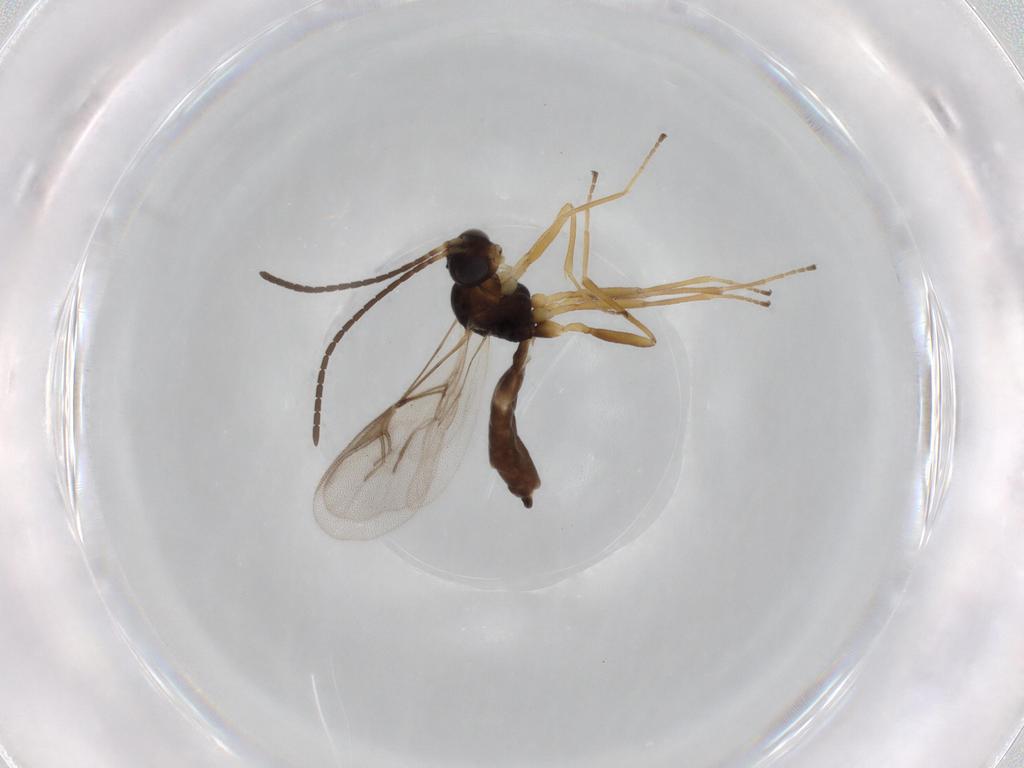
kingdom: Animalia
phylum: Arthropoda
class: Insecta
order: Hymenoptera
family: Braconidae
